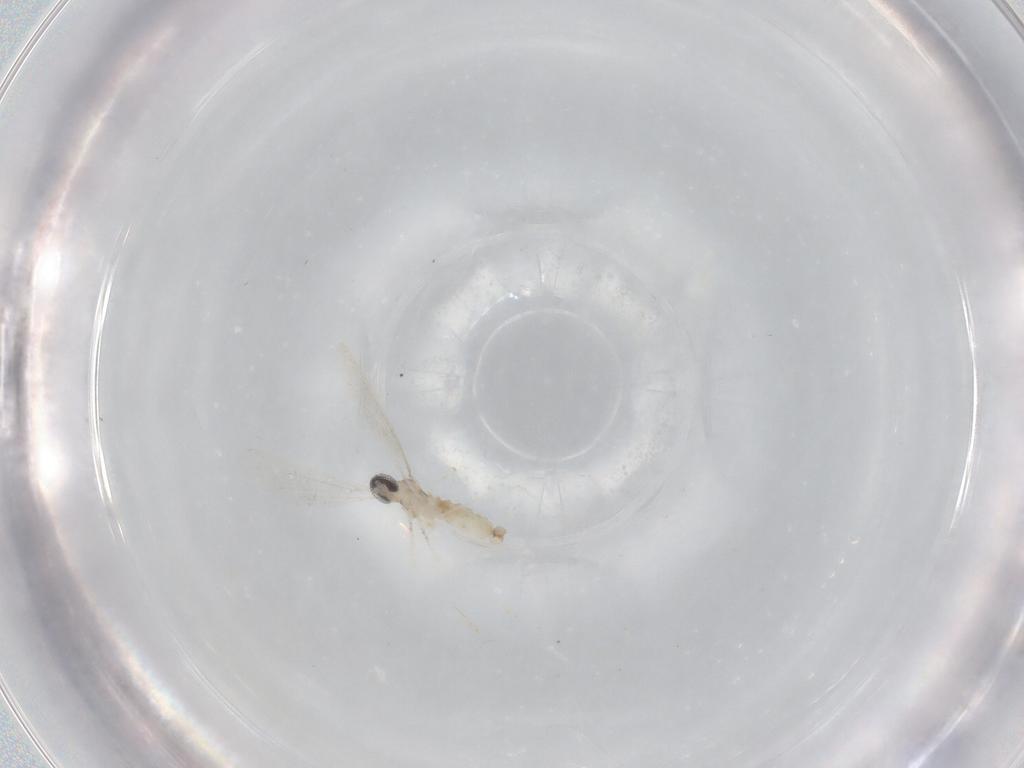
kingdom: Animalia
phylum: Arthropoda
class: Insecta
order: Diptera
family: Cecidomyiidae
